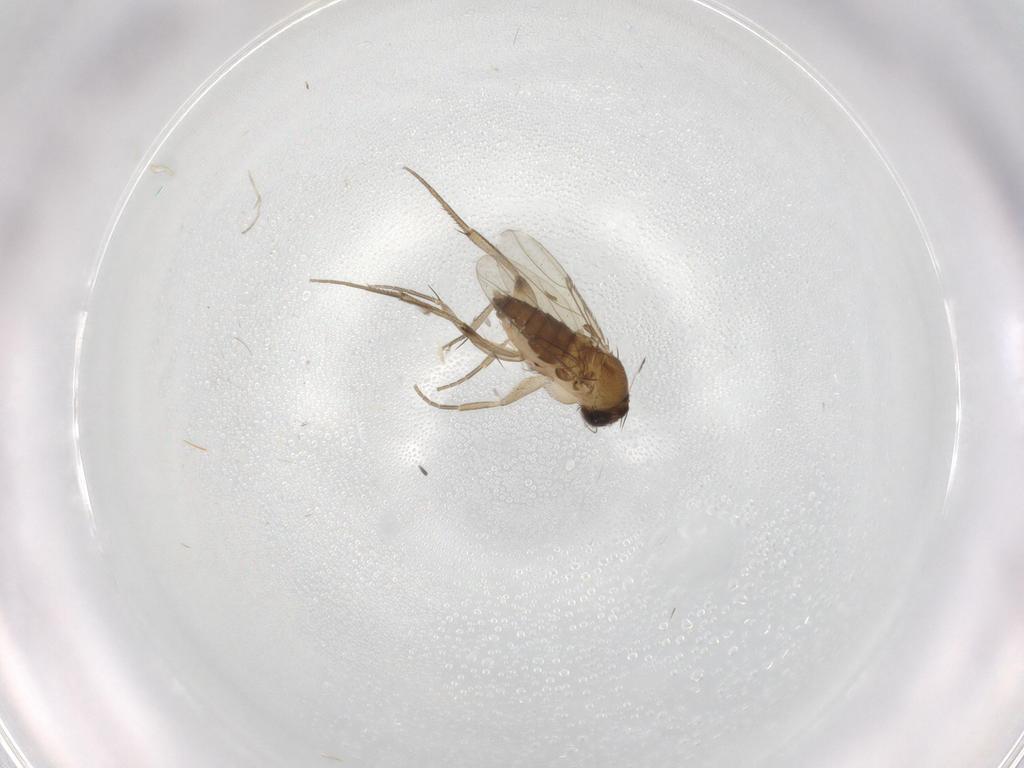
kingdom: Animalia
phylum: Arthropoda
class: Insecta
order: Diptera
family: Phoridae
